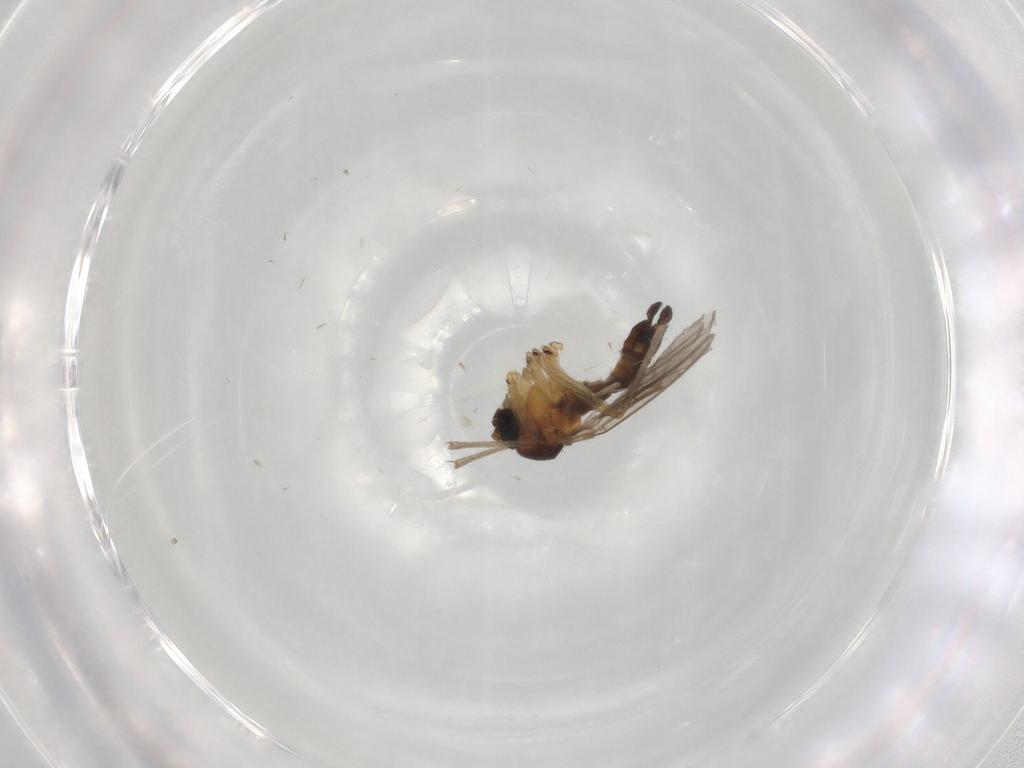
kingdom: Animalia
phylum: Arthropoda
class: Insecta
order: Diptera
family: Sciaridae
